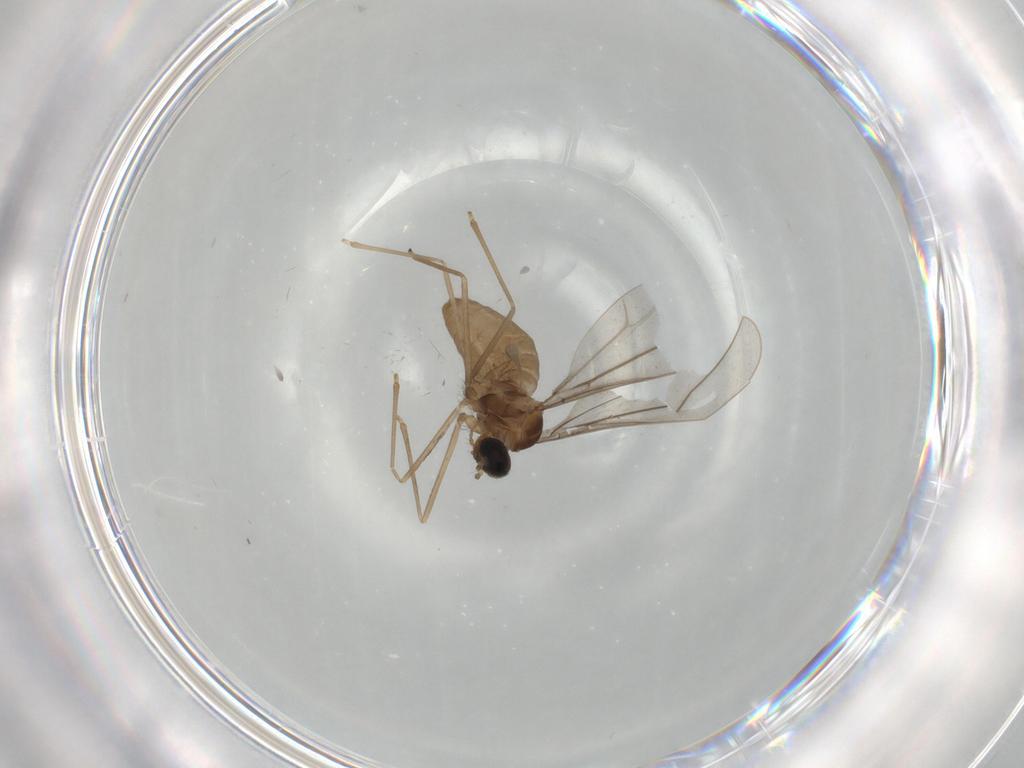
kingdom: Animalia
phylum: Arthropoda
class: Insecta
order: Diptera
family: Cecidomyiidae
